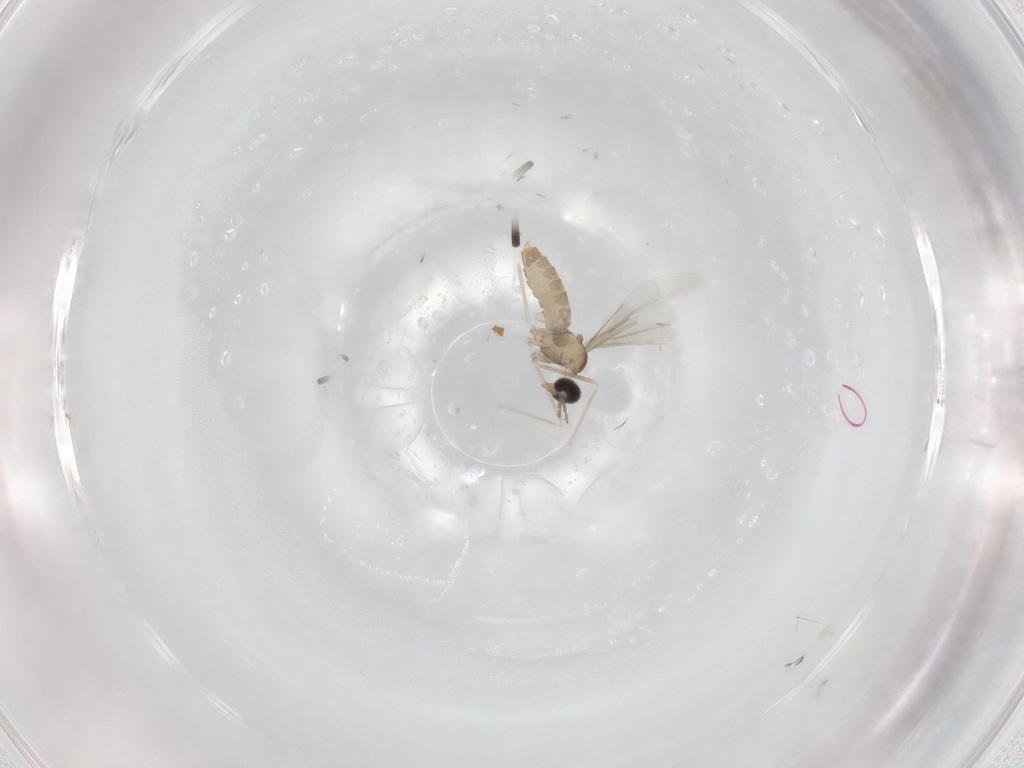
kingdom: Animalia
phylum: Arthropoda
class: Insecta
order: Diptera
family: Cecidomyiidae
